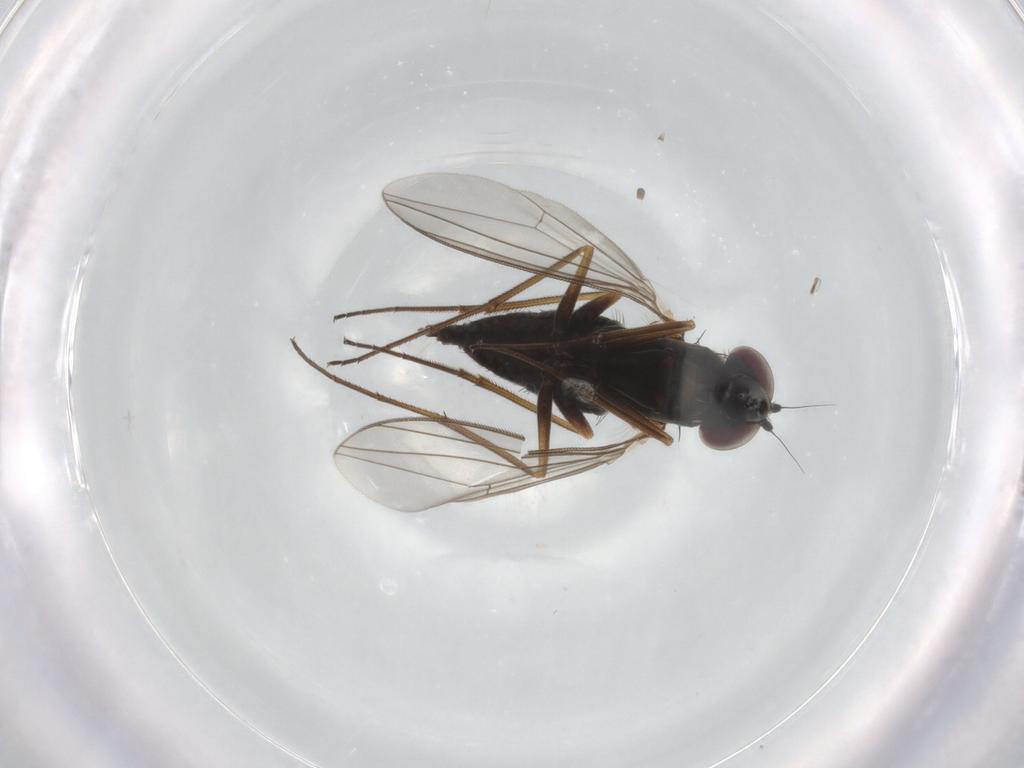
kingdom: Animalia
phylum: Arthropoda
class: Insecta
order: Diptera
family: Dolichopodidae
